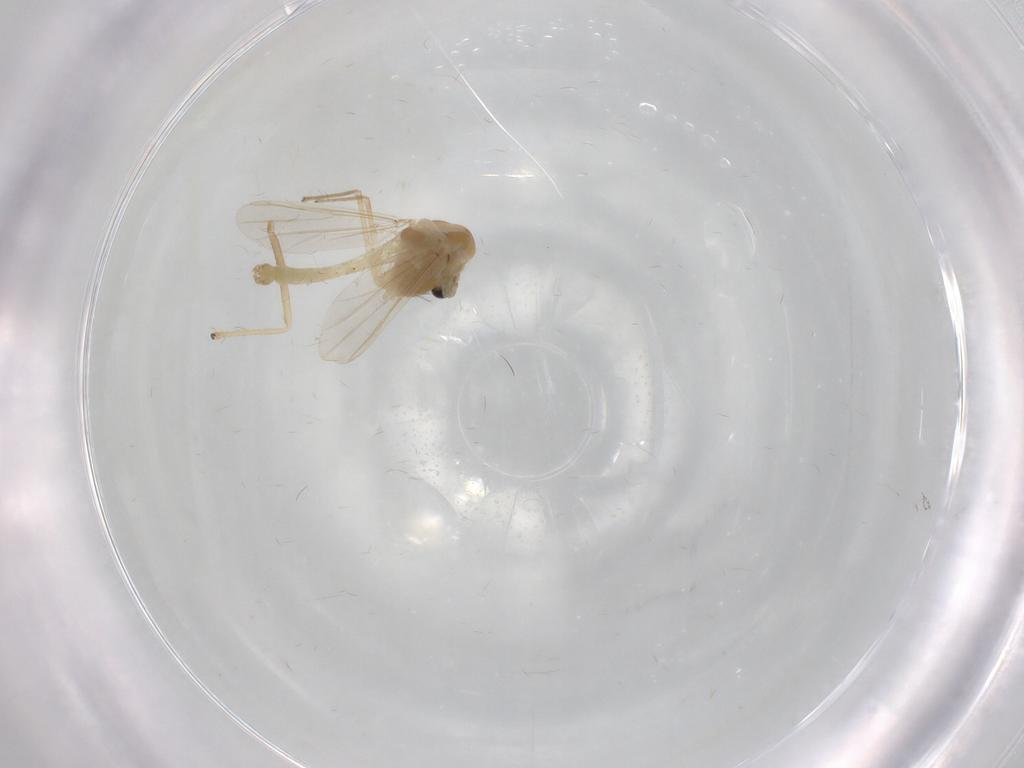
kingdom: Animalia
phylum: Arthropoda
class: Insecta
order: Diptera
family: Chironomidae
